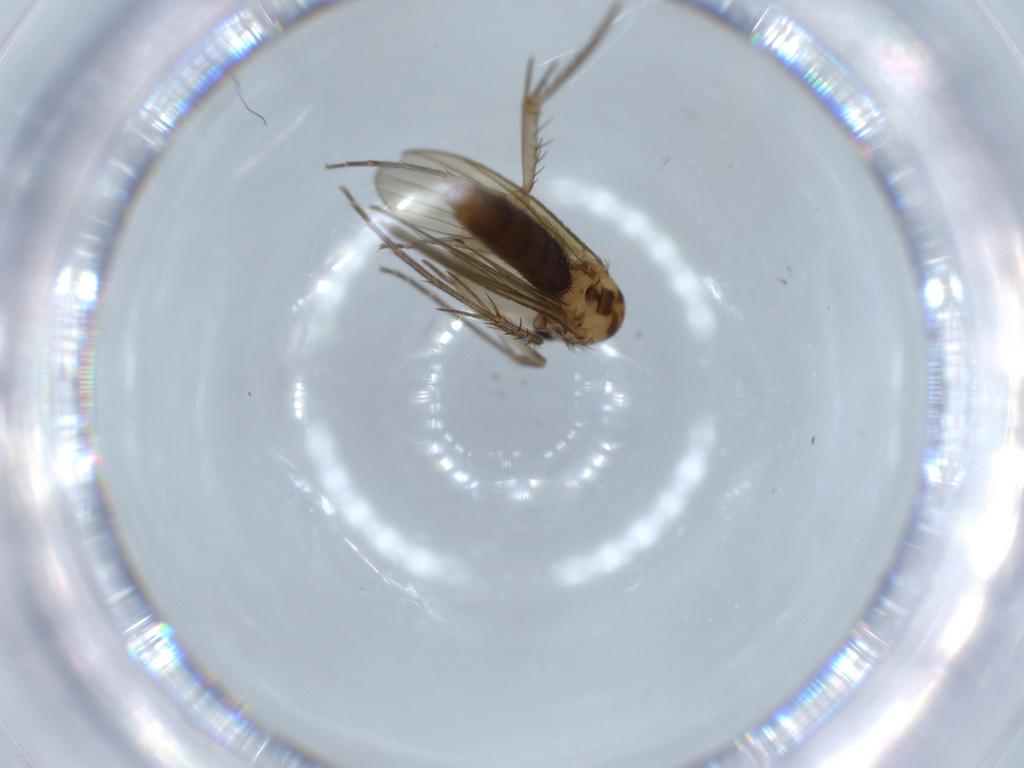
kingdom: Animalia
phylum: Arthropoda
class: Insecta
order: Diptera
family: Mycetophilidae
